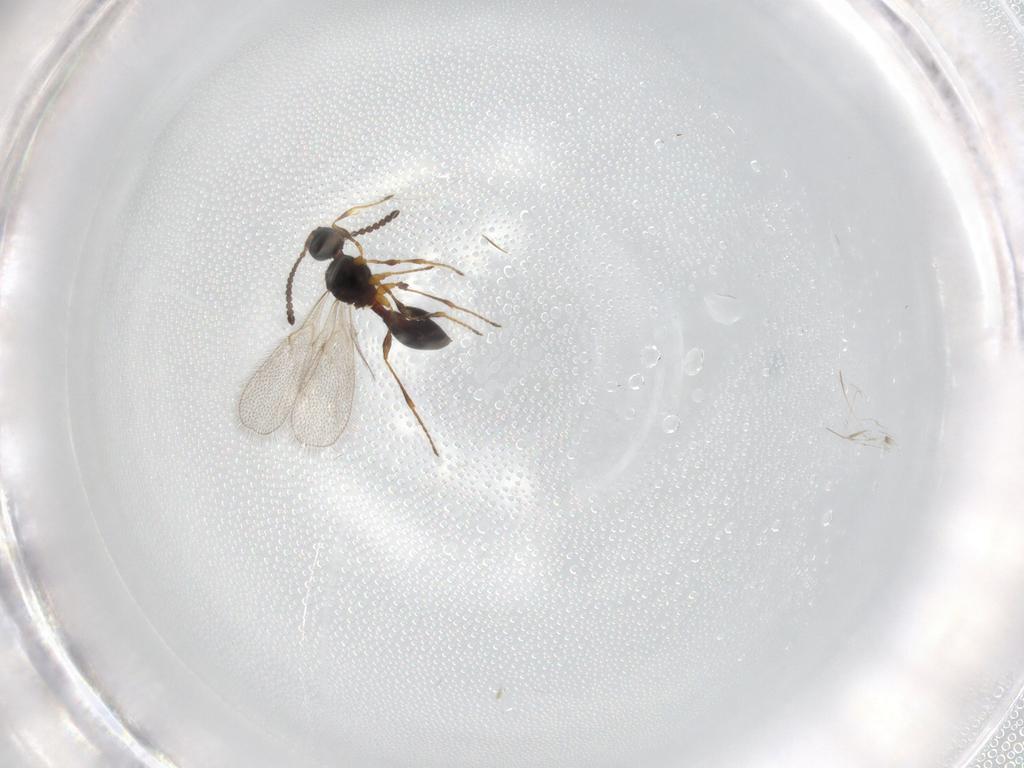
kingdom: Animalia
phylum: Arthropoda
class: Insecta
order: Hymenoptera
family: Diapriidae
